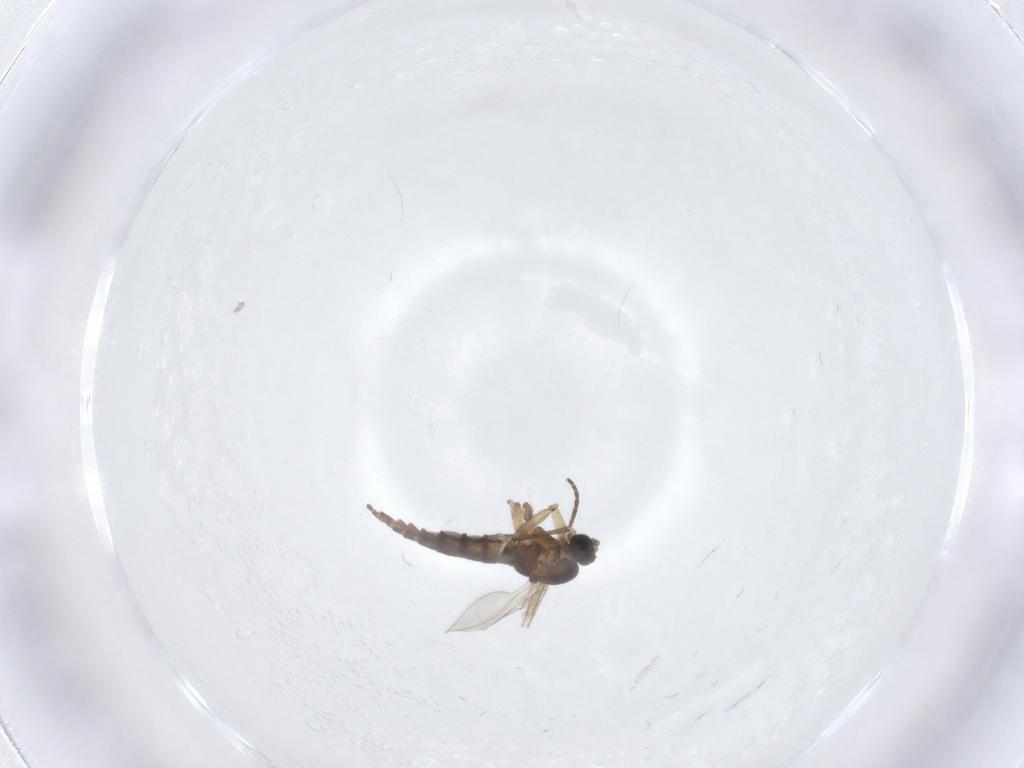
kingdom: Animalia
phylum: Arthropoda
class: Insecta
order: Diptera
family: Sciaridae
